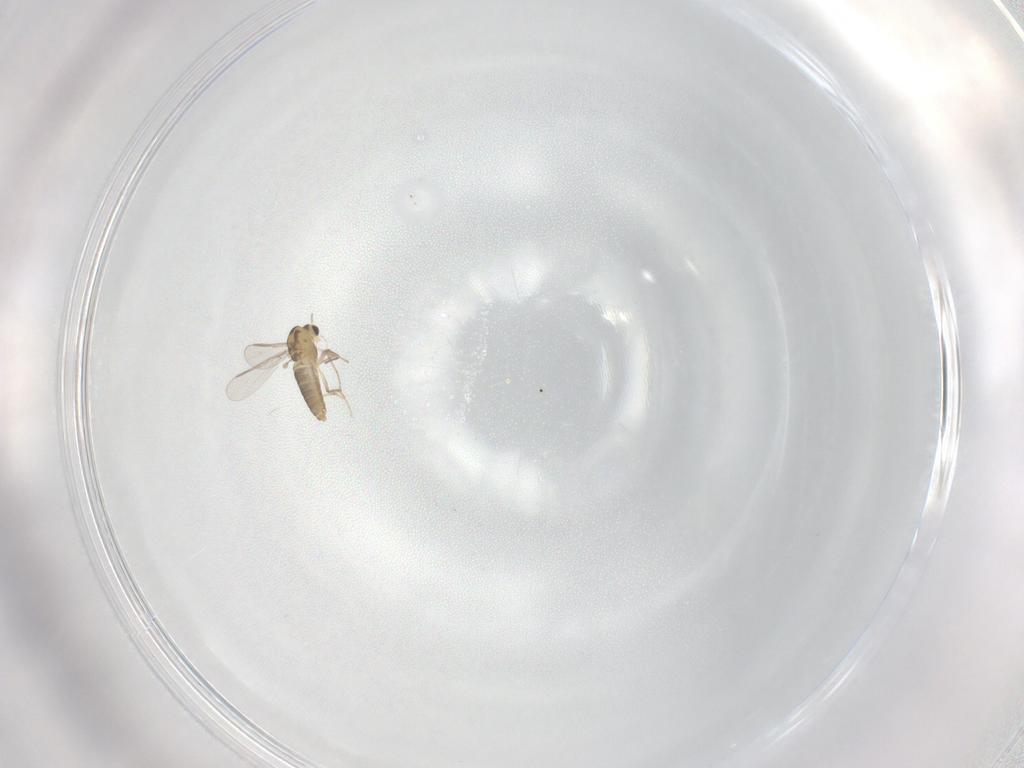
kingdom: Animalia
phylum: Arthropoda
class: Insecta
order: Diptera
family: Chironomidae
